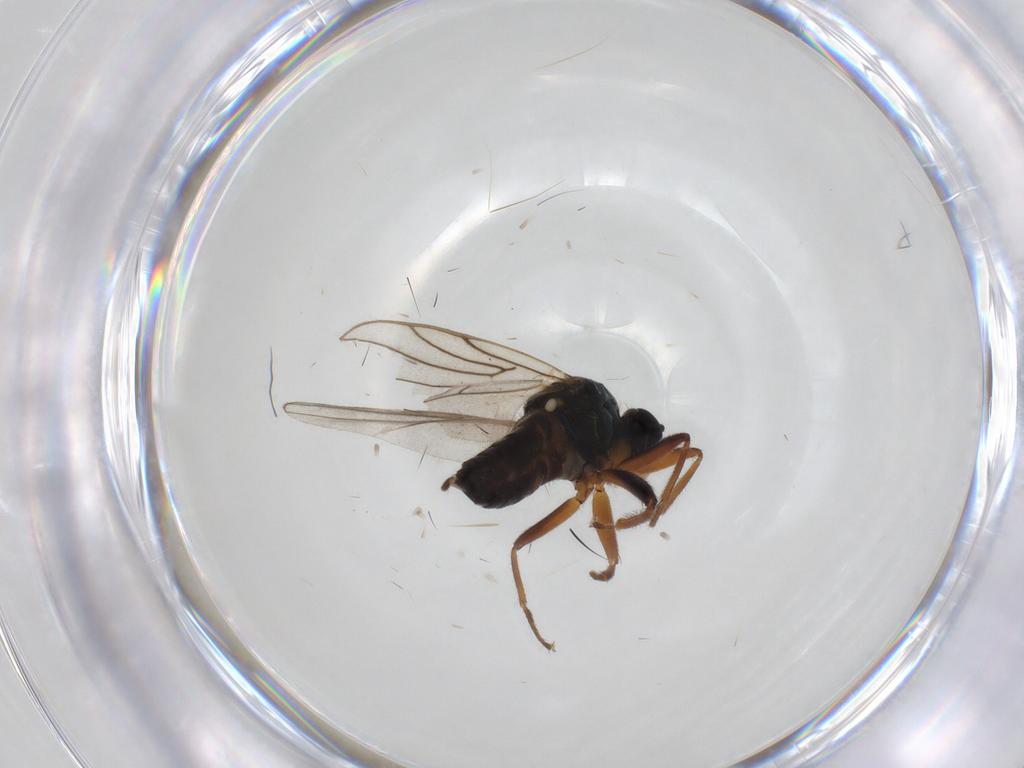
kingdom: Animalia
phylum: Arthropoda
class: Insecta
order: Diptera
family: Hybotidae
